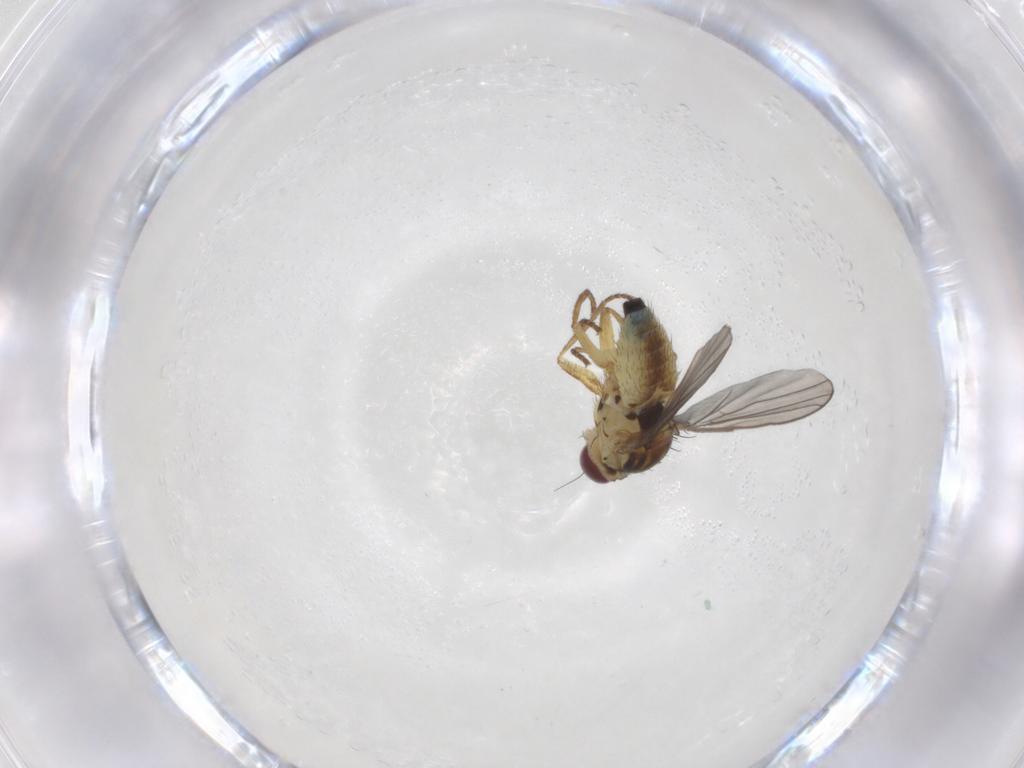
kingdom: Animalia
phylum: Arthropoda
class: Insecta
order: Diptera
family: Agromyzidae
